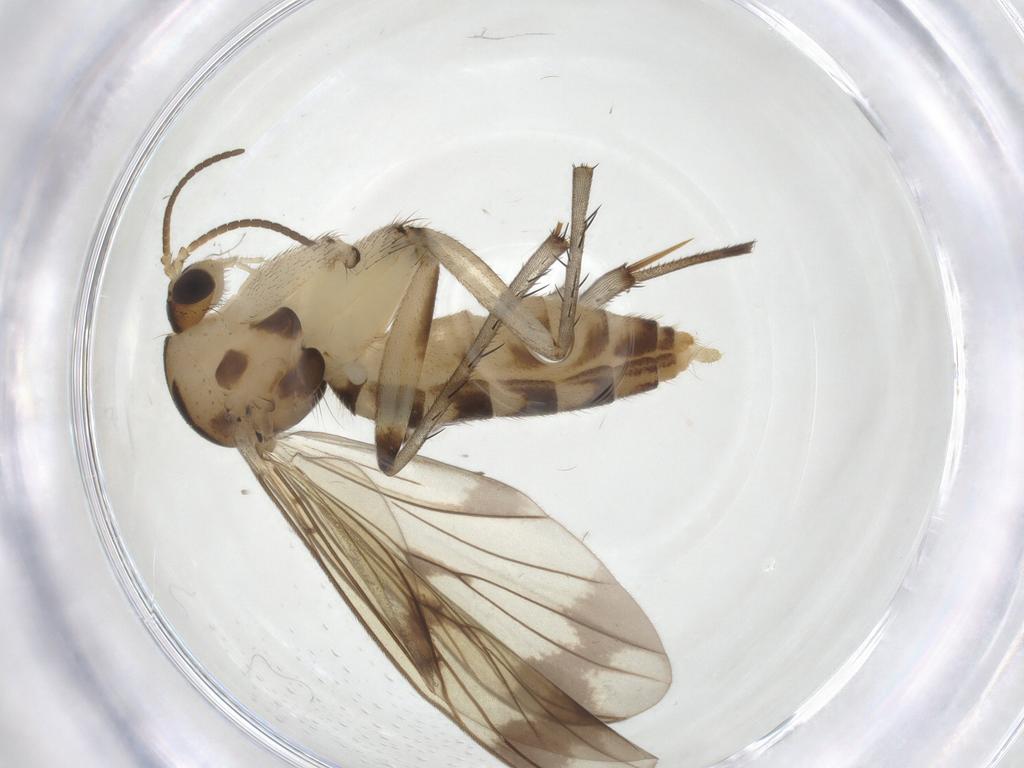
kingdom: Animalia
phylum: Arthropoda
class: Insecta
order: Diptera
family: Mycetophilidae
